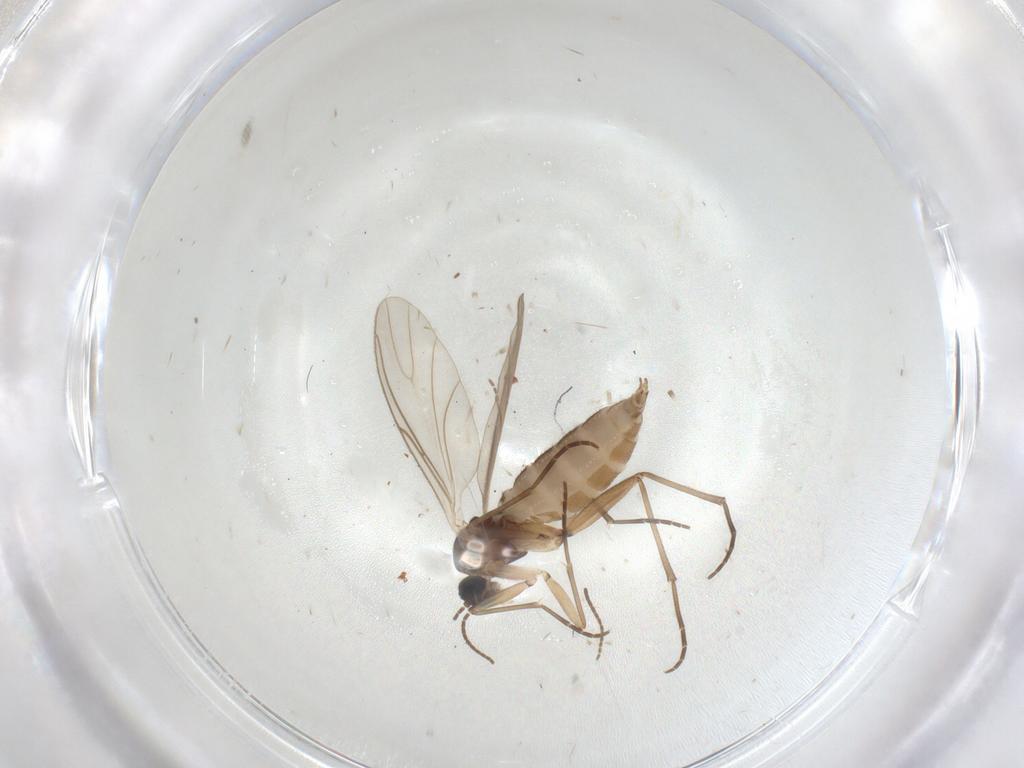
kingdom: Animalia
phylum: Arthropoda
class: Insecta
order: Diptera
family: Sciaridae
